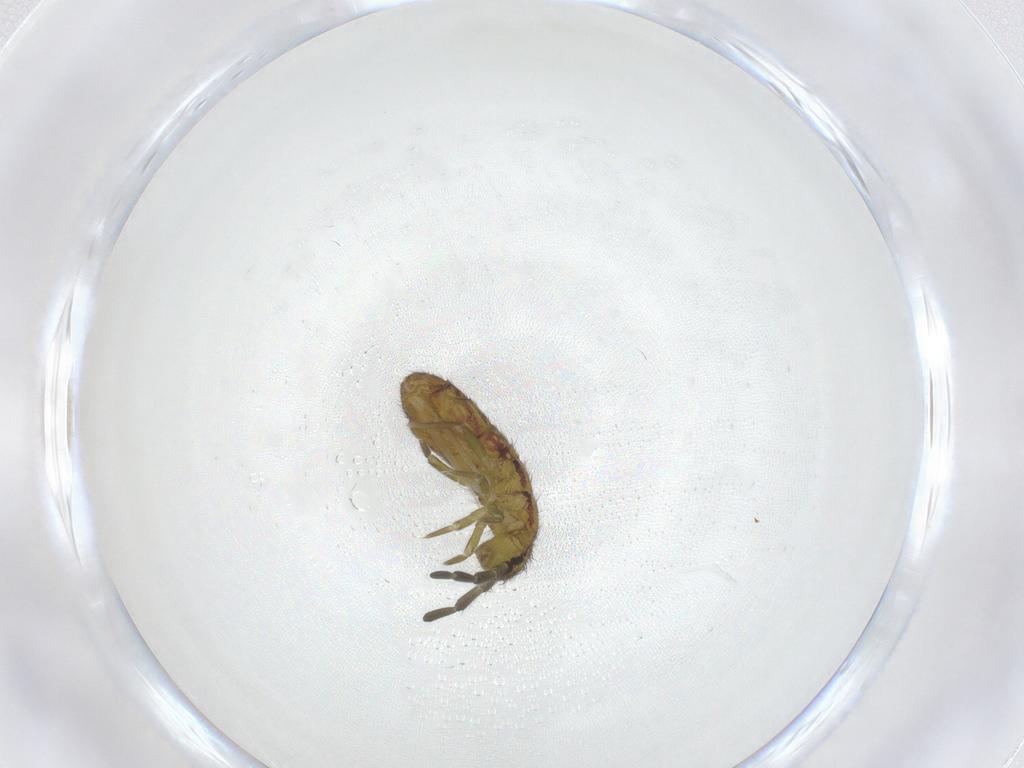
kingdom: Animalia
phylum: Arthropoda
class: Collembola
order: Entomobryomorpha
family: Isotomidae
